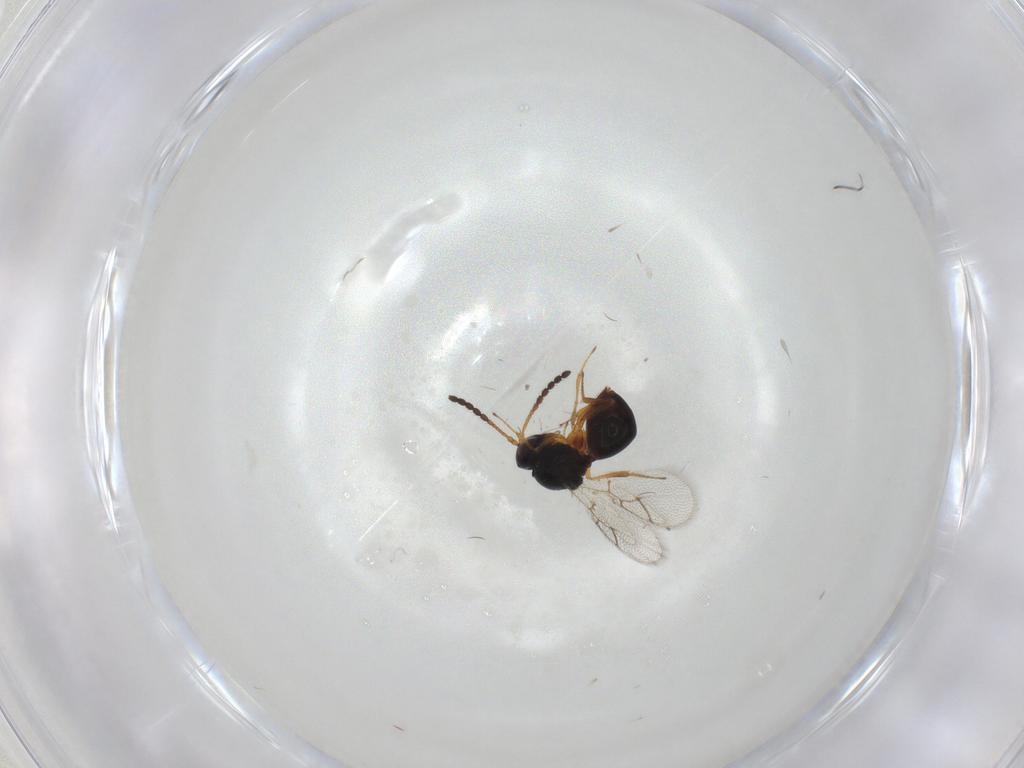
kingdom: Animalia
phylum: Arthropoda
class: Insecta
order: Hymenoptera
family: Figitidae
